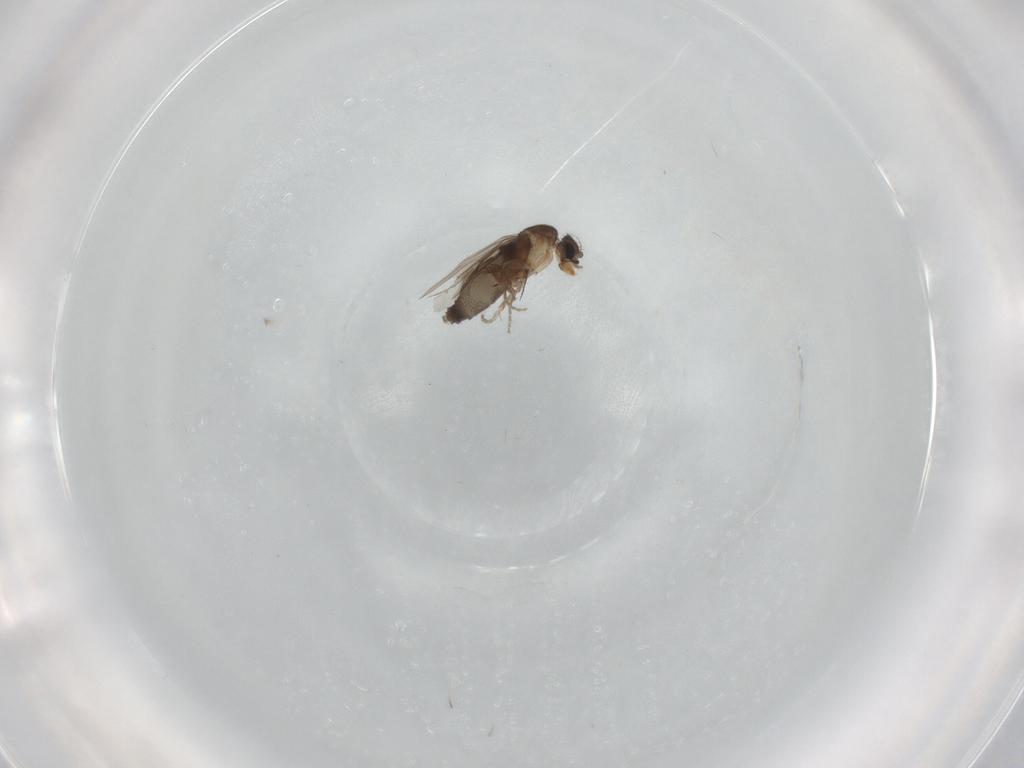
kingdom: Animalia
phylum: Arthropoda
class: Insecta
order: Diptera
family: Phoridae
